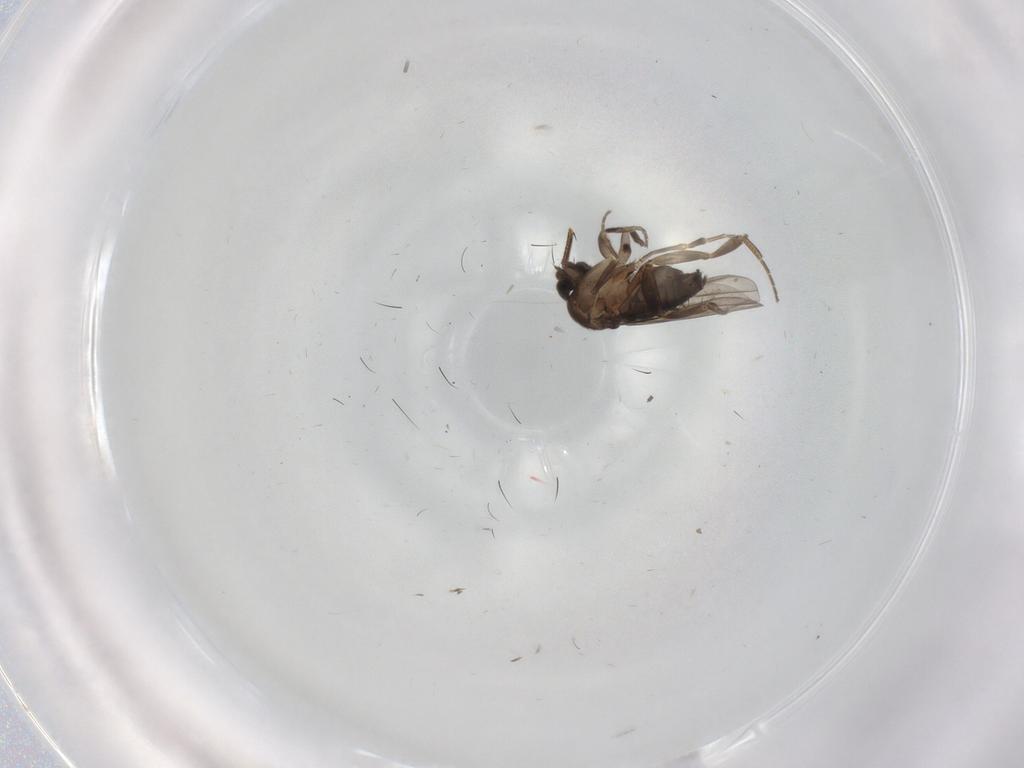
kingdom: Animalia
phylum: Arthropoda
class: Insecta
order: Diptera
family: Phoridae
